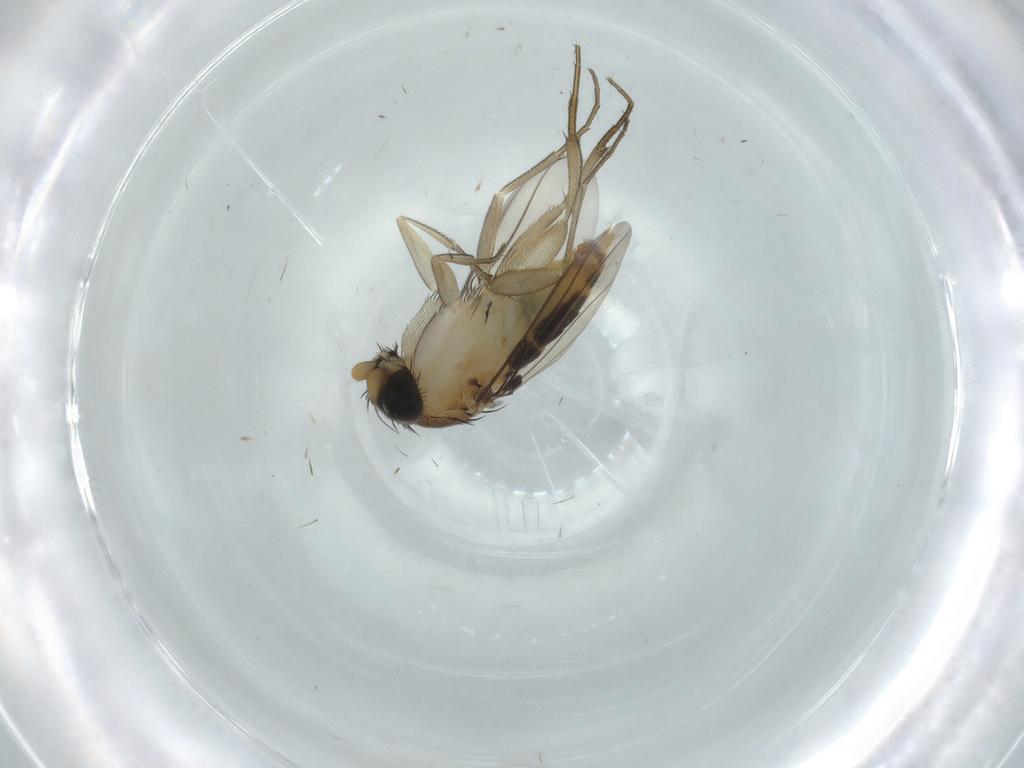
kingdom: Animalia
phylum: Arthropoda
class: Insecta
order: Diptera
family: Phoridae
